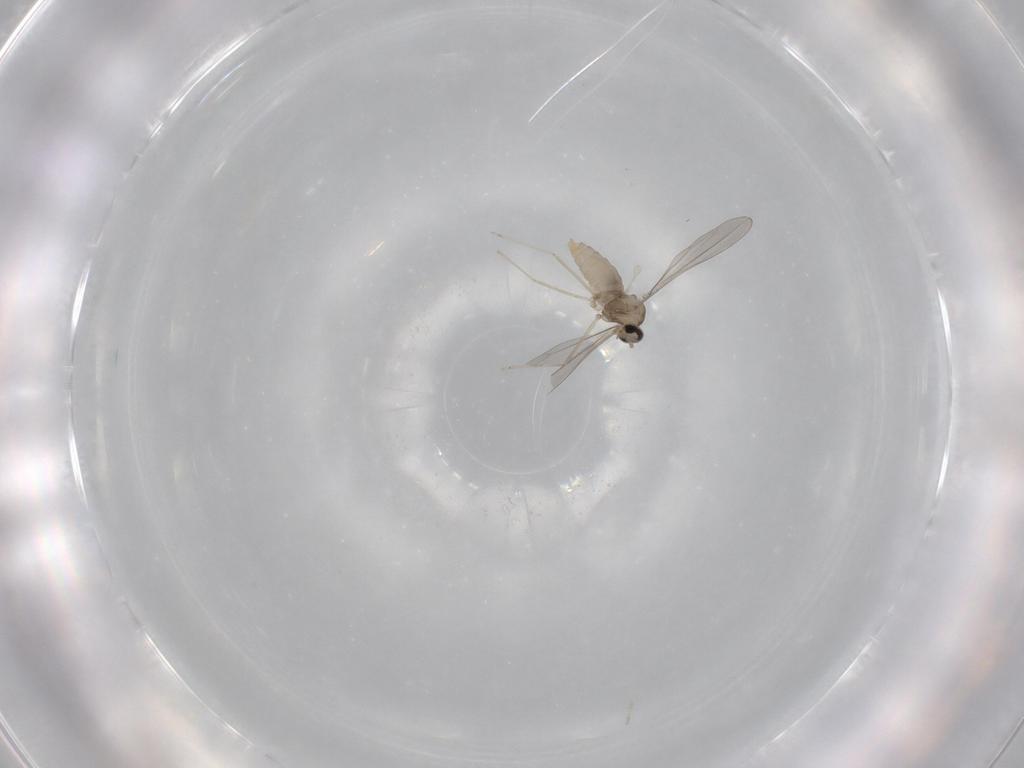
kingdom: Animalia
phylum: Arthropoda
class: Insecta
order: Diptera
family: Cecidomyiidae
